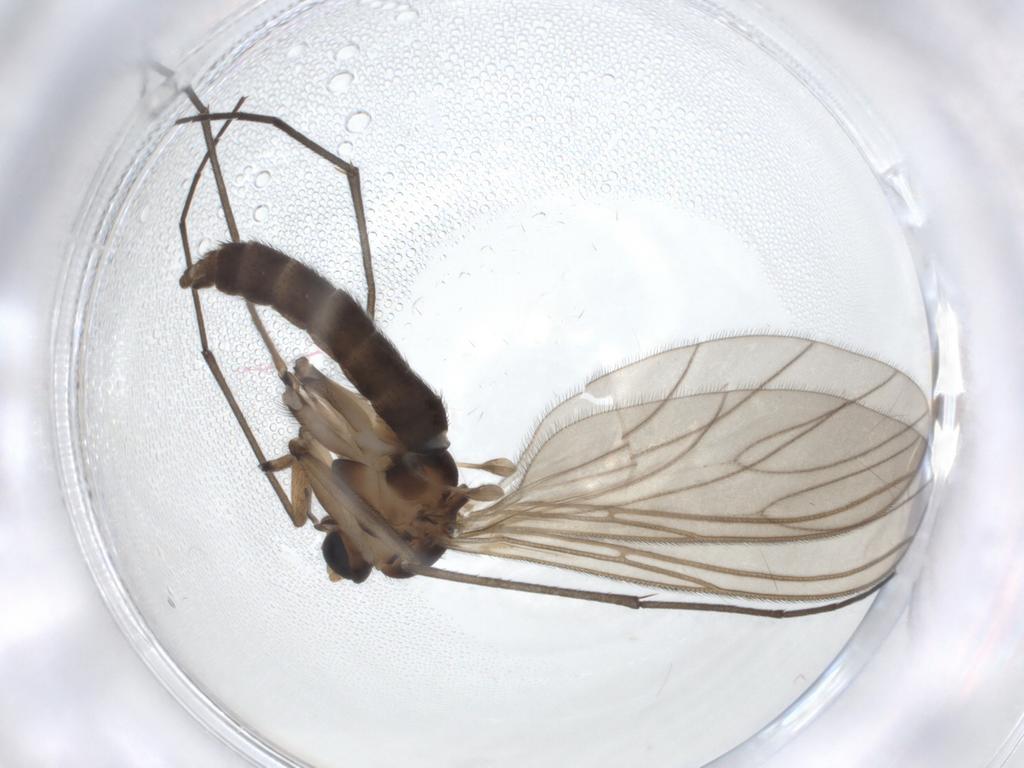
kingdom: Animalia
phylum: Arthropoda
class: Insecta
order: Diptera
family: Sciaridae
